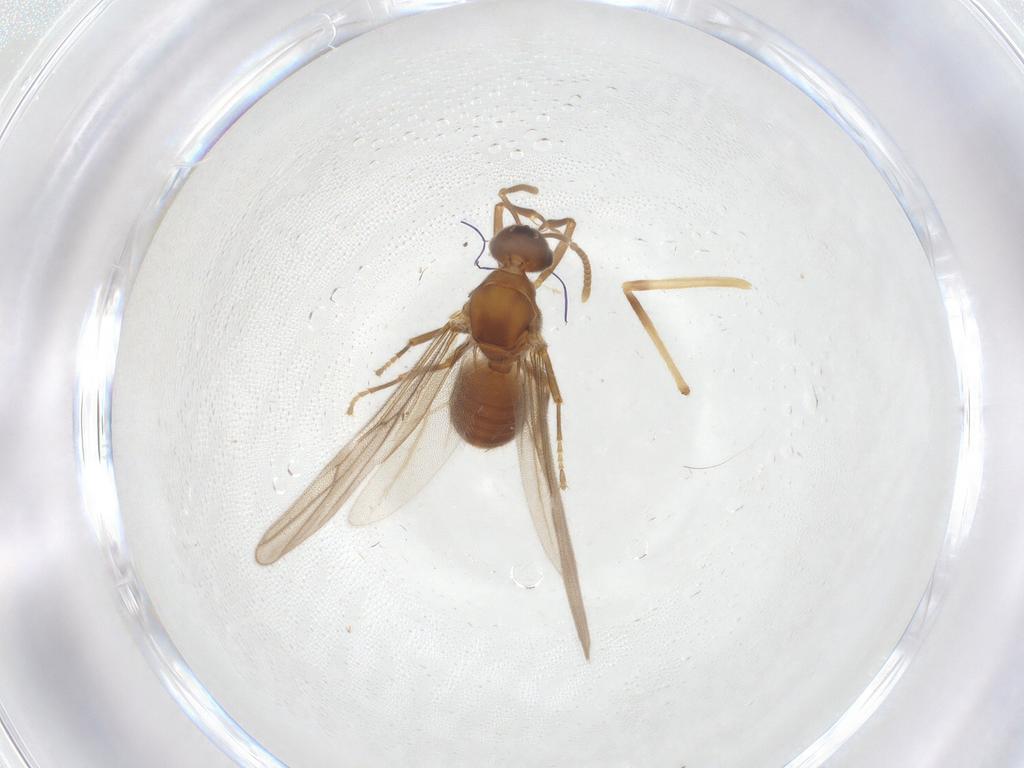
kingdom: Animalia
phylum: Arthropoda
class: Insecta
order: Hymenoptera
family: Formicidae
